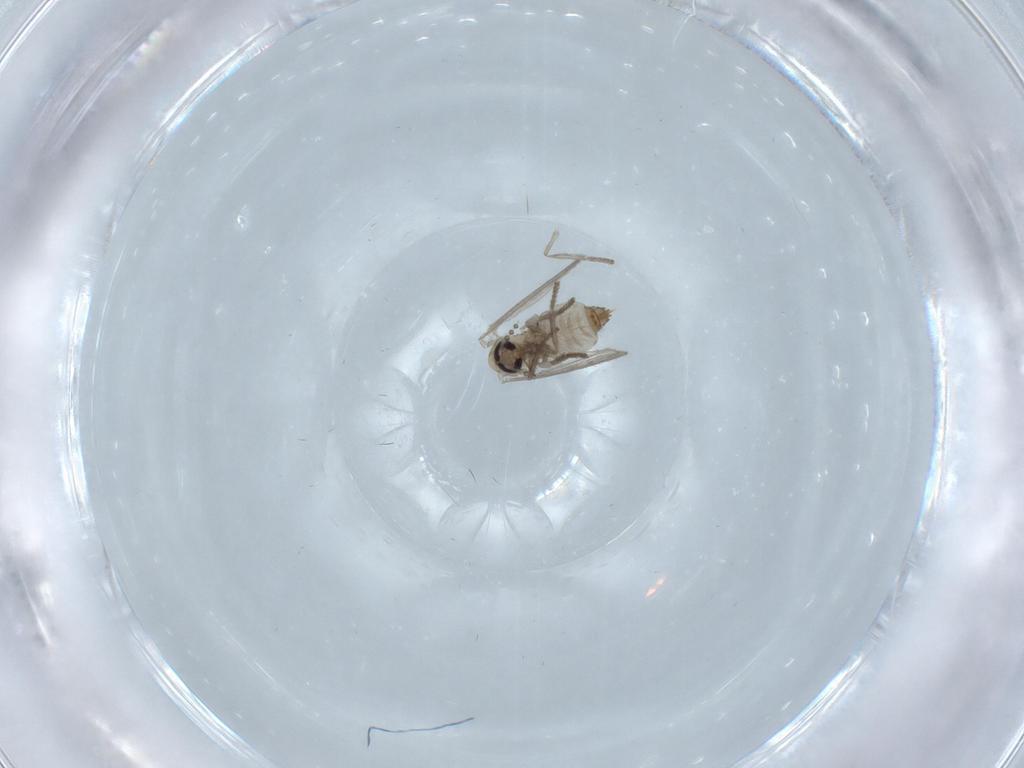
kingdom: Animalia
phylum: Arthropoda
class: Insecta
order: Diptera
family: Psychodidae
